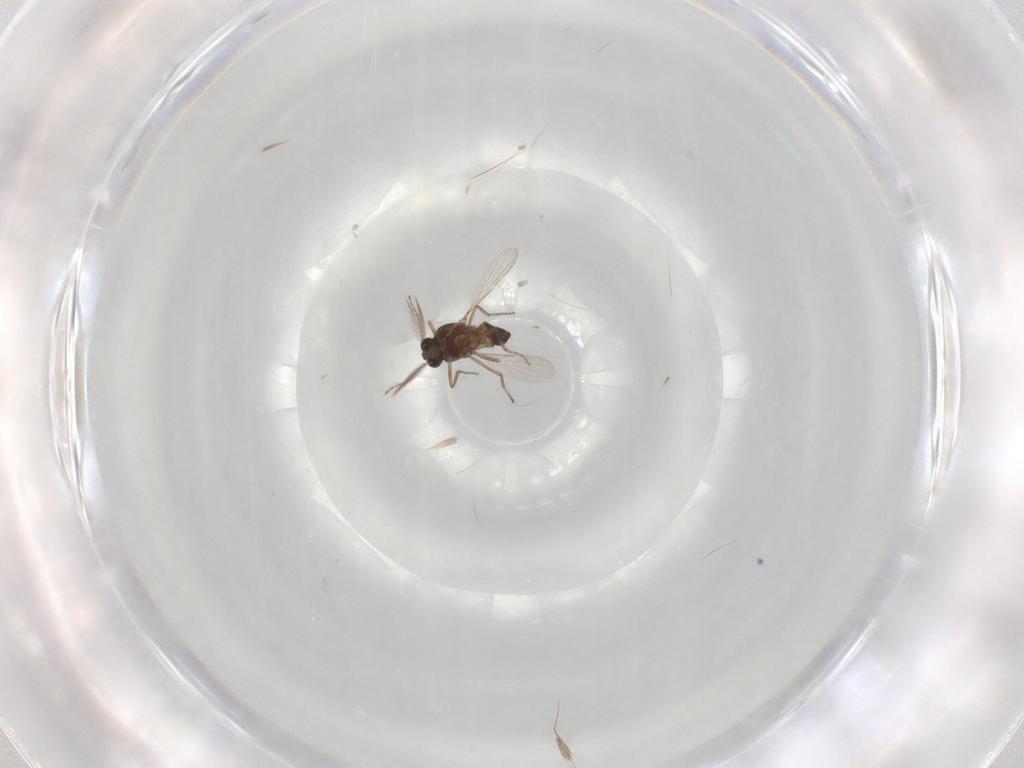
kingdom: Animalia
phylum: Arthropoda
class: Insecta
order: Diptera
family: Ceratopogonidae
